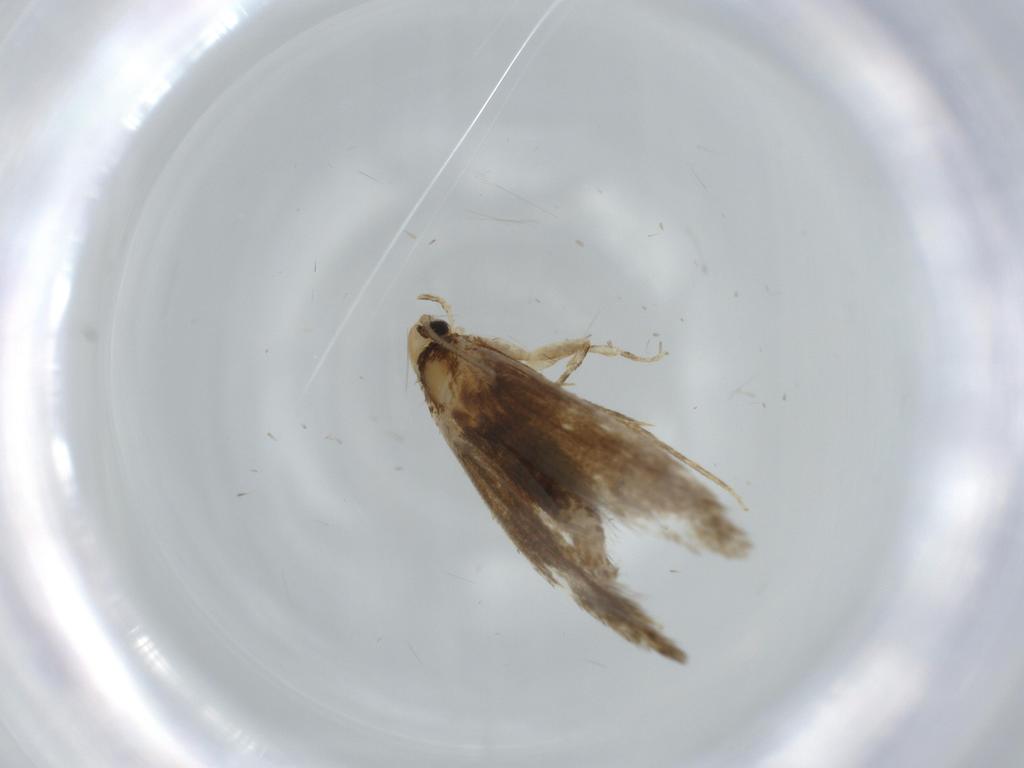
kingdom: Animalia
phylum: Arthropoda
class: Insecta
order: Lepidoptera
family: Tineidae
